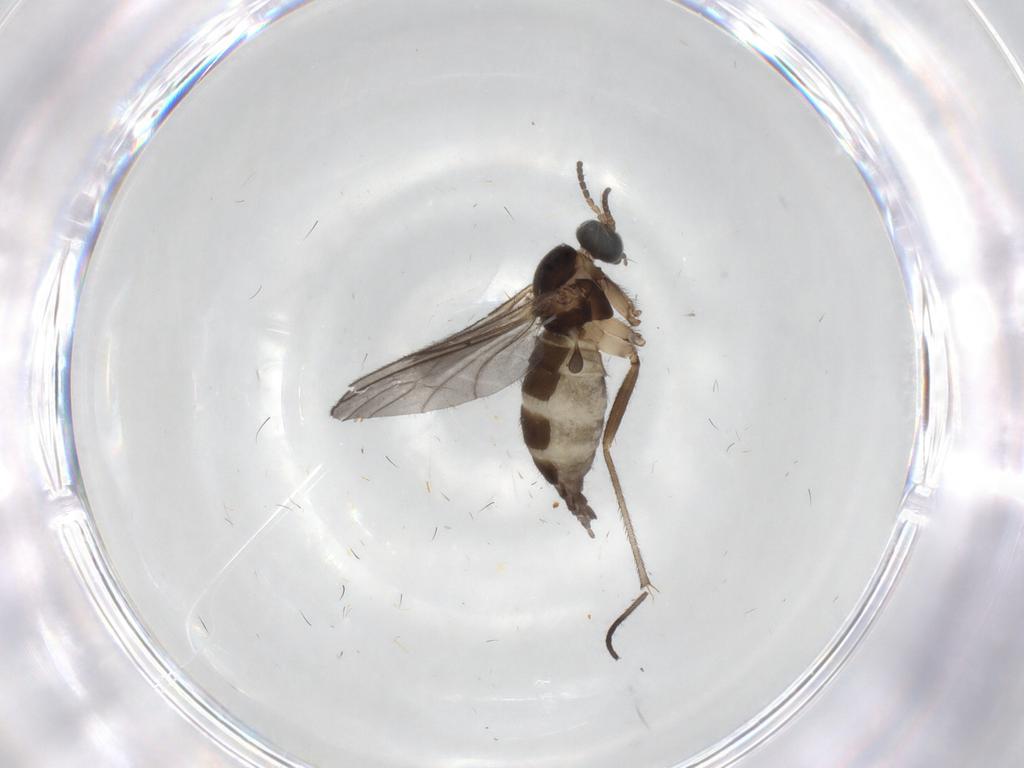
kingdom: Animalia
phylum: Arthropoda
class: Insecta
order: Diptera
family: Sciaridae
